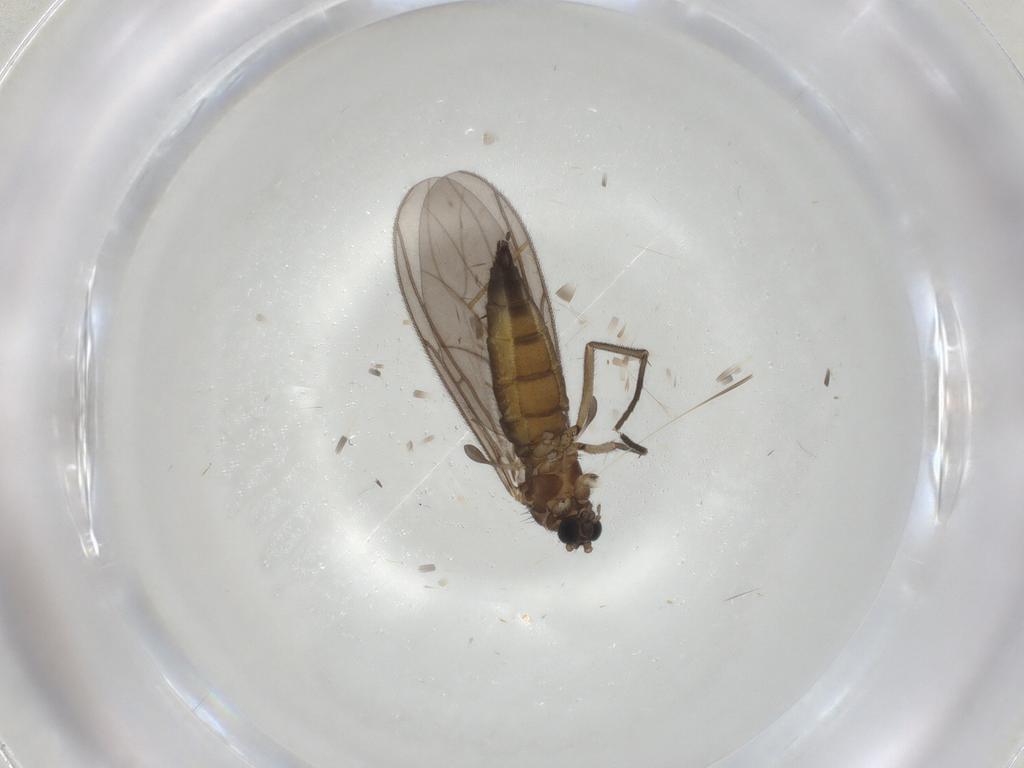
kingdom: Animalia
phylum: Arthropoda
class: Insecta
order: Diptera
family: Sciaridae
